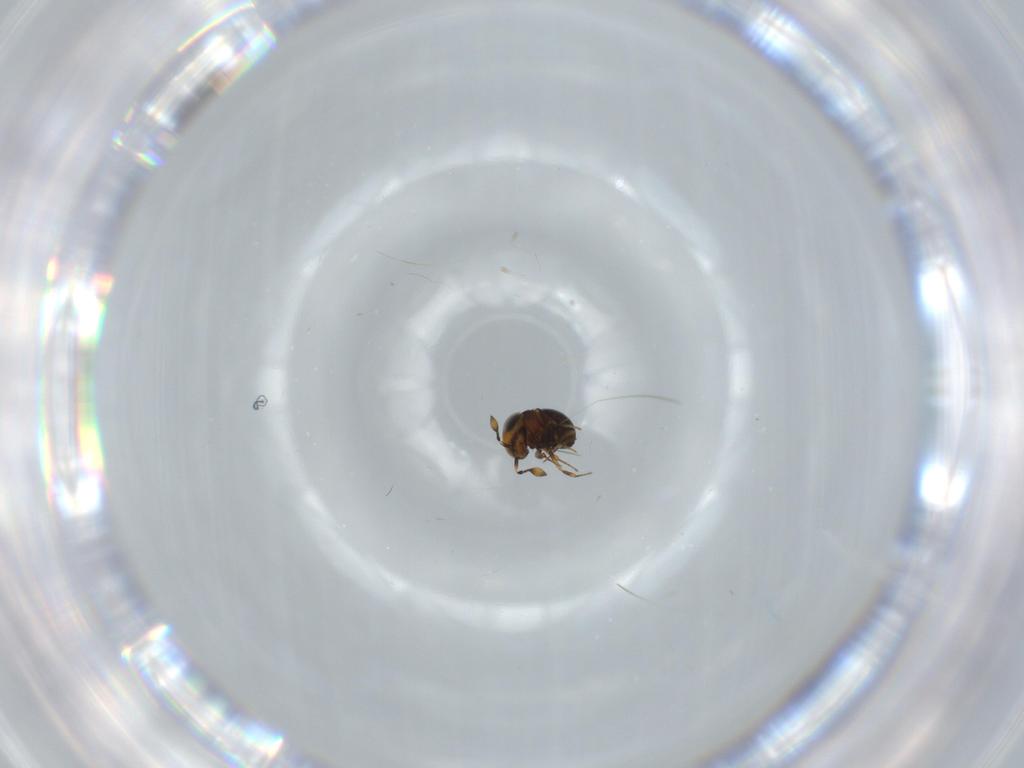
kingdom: Animalia
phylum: Arthropoda
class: Insecta
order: Hymenoptera
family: Scelionidae
